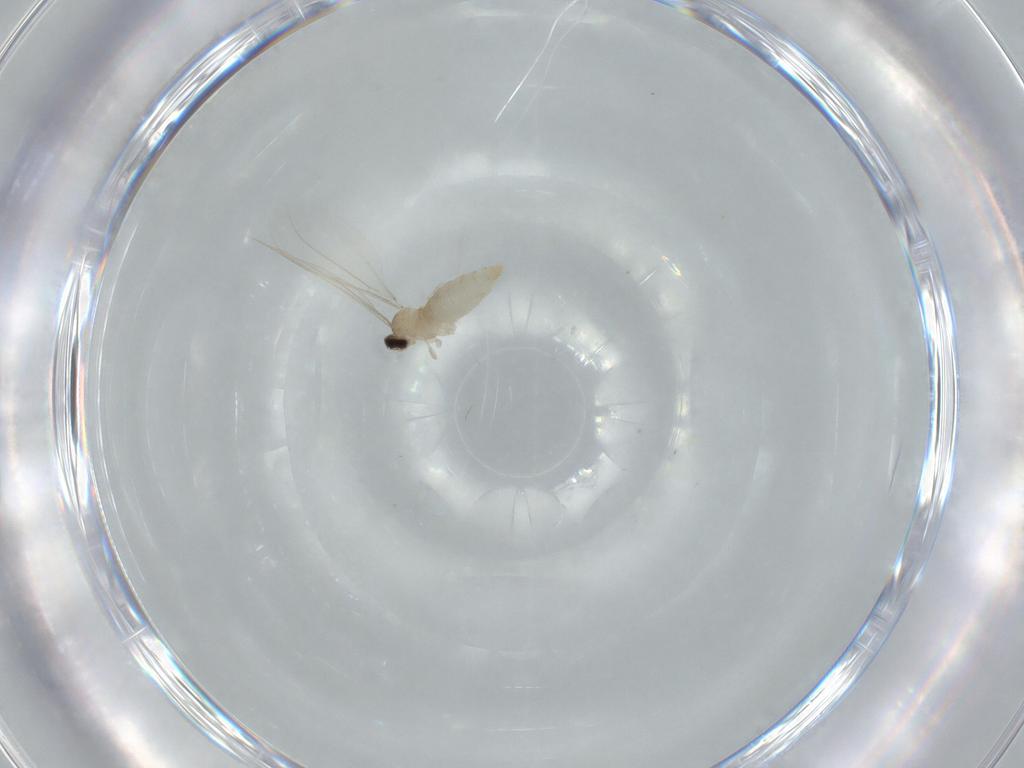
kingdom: Animalia
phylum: Arthropoda
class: Insecta
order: Diptera
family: Cecidomyiidae
